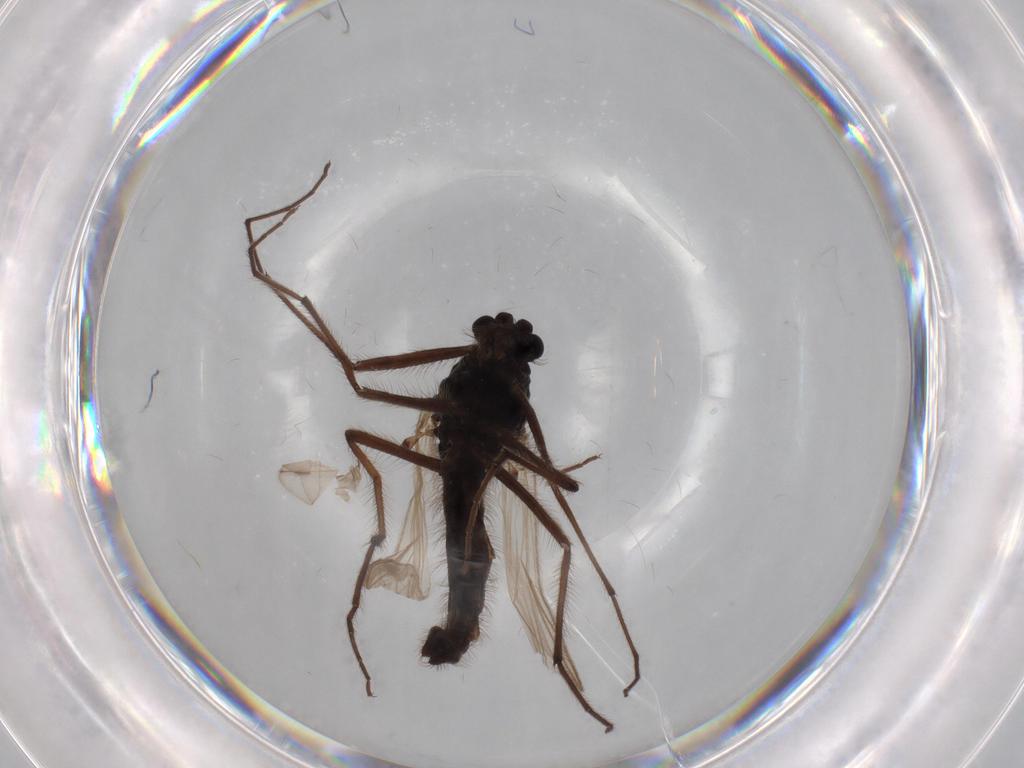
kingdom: Animalia
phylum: Arthropoda
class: Insecta
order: Diptera
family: Cecidomyiidae
